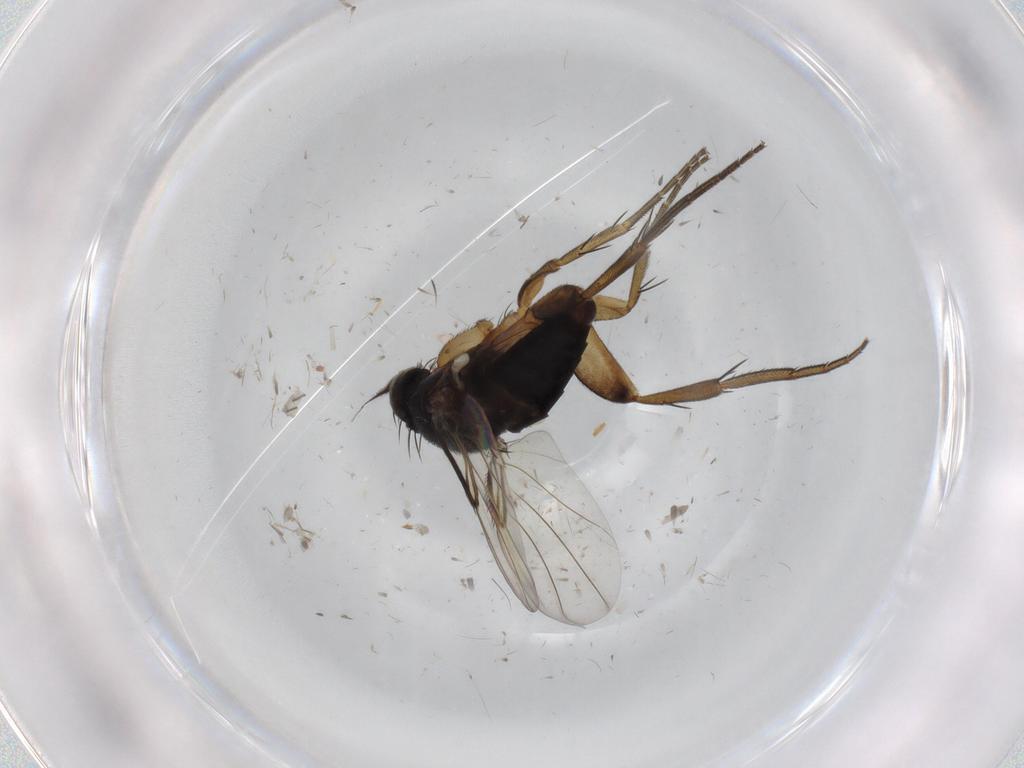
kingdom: Animalia
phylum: Arthropoda
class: Insecta
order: Diptera
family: Phoridae
